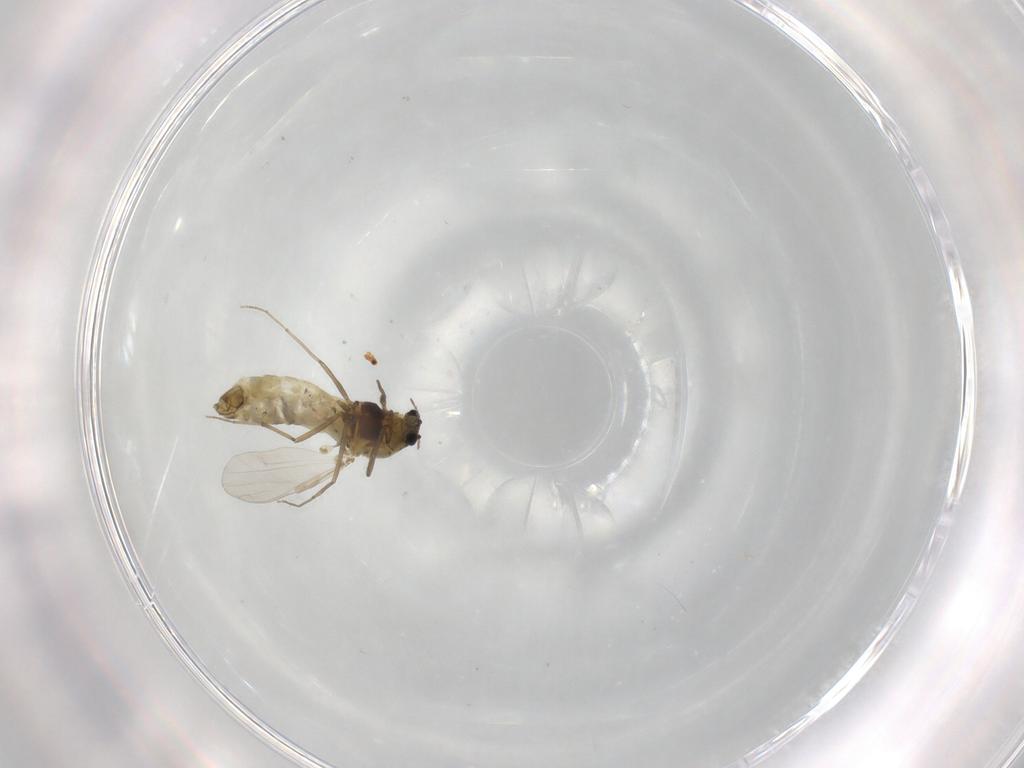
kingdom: Animalia
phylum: Arthropoda
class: Insecta
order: Diptera
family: Chironomidae
